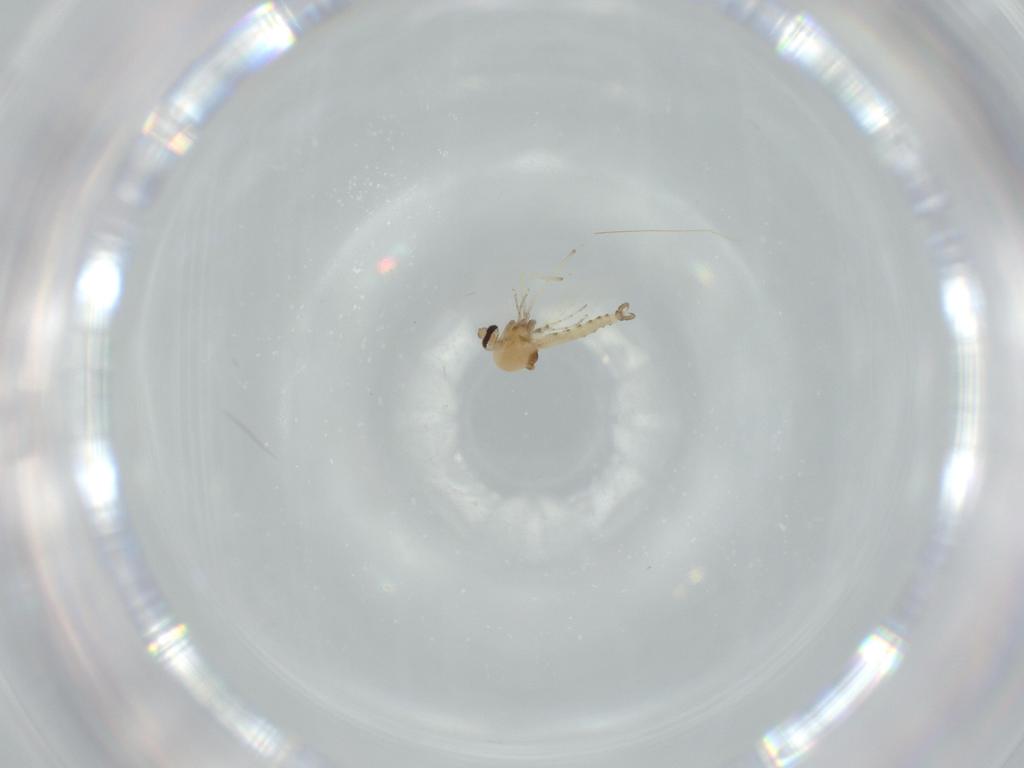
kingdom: Animalia
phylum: Arthropoda
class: Insecta
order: Diptera
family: Ceratopogonidae
